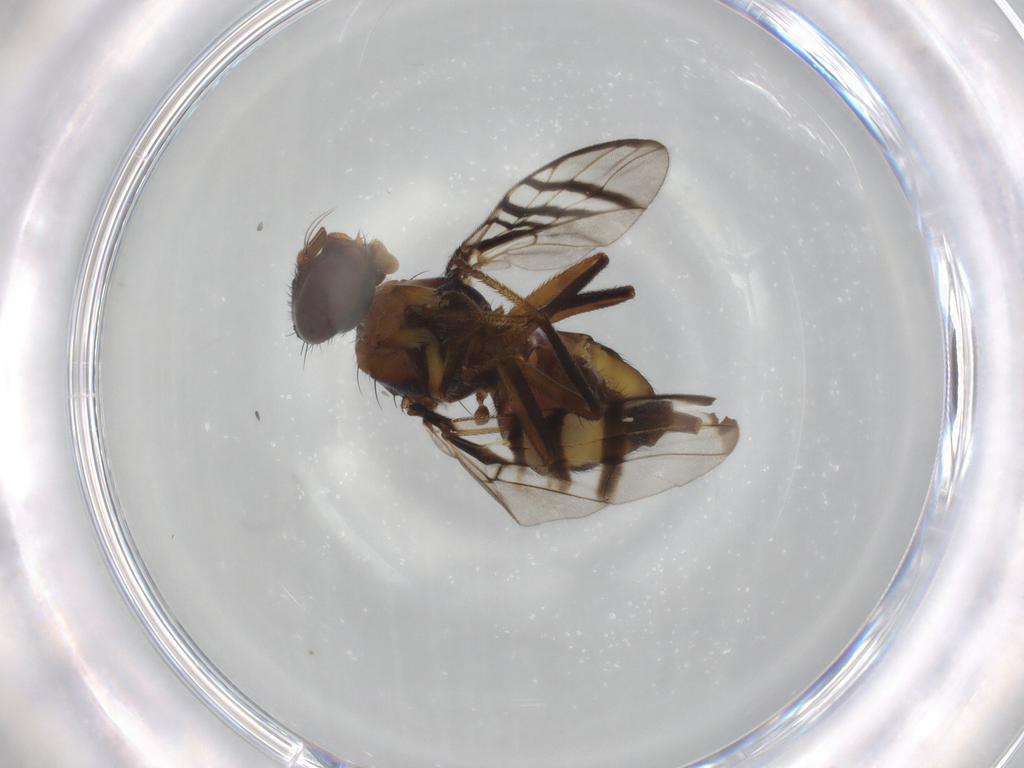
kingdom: Animalia
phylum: Arthropoda
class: Insecta
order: Diptera
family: Platystomatidae
